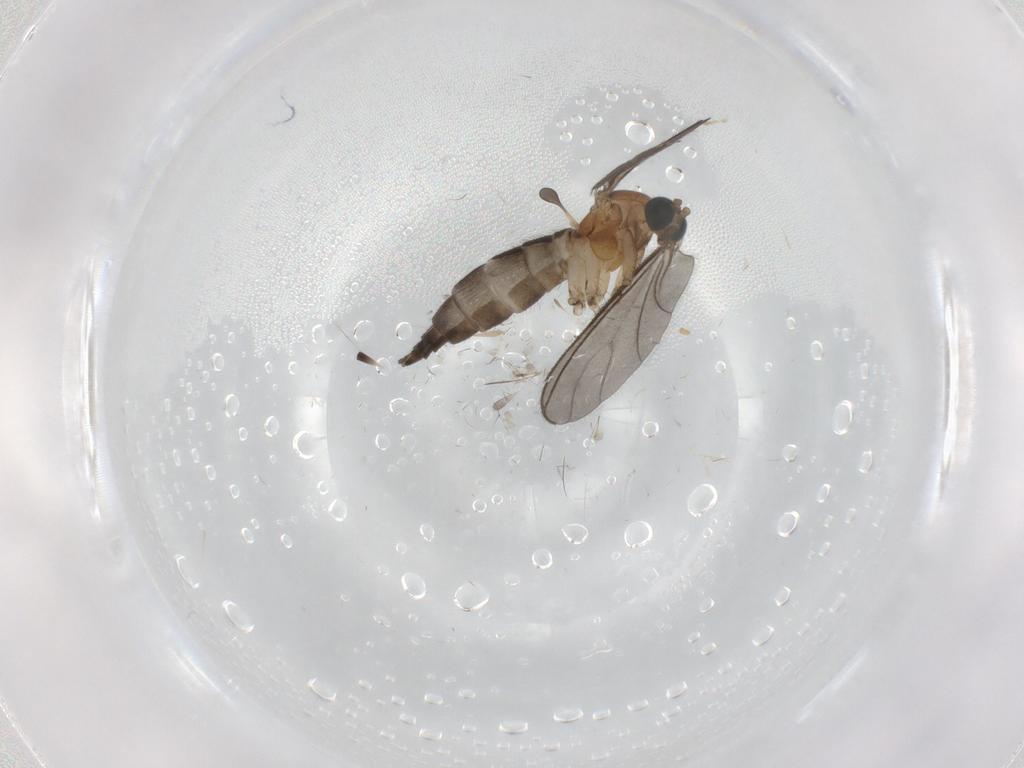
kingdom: Animalia
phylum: Arthropoda
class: Insecta
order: Diptera
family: Sciaridae
